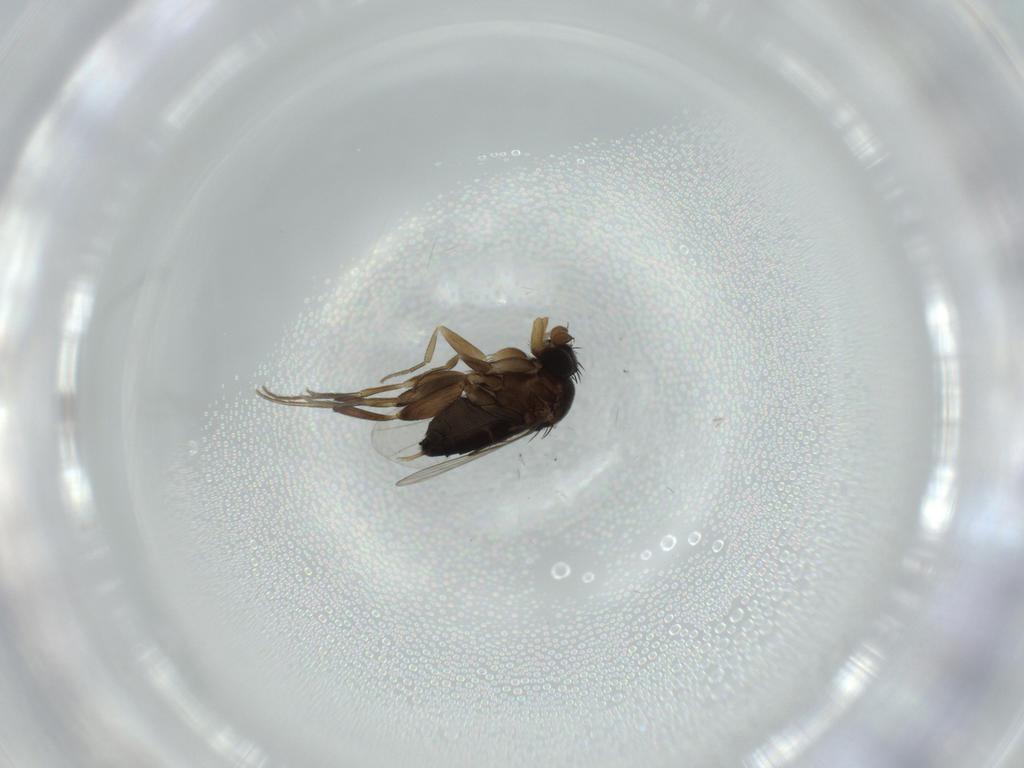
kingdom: Animalia
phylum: Arthropoda
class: Insecta
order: Diptera
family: Phoridae
